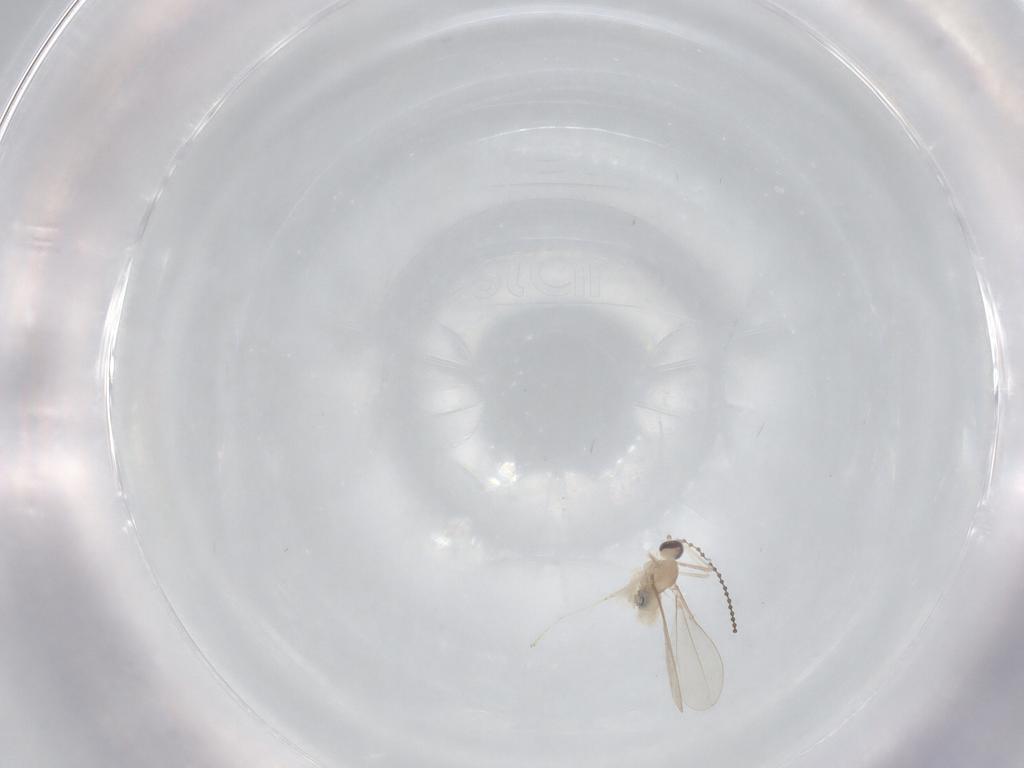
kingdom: Animalia
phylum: Arthropoda
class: Insecta
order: Diptera
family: Cecidomyiidae
